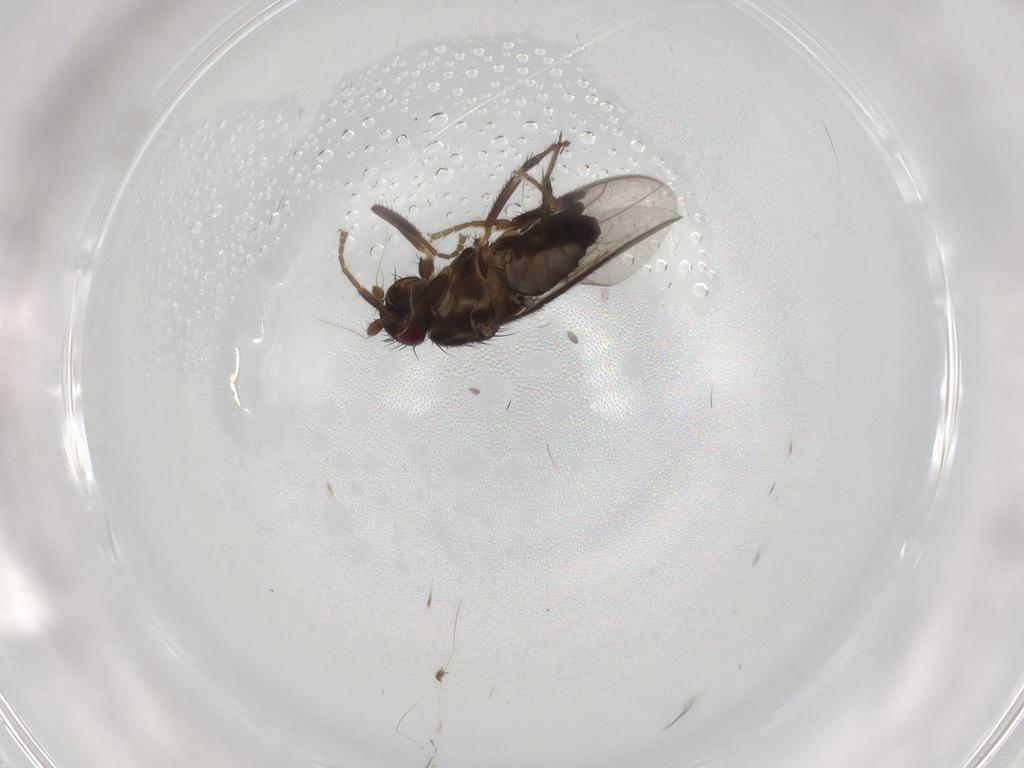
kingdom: Animalia
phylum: Arthropoda
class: Insecta
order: Diptera
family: Sphaeroceridae
